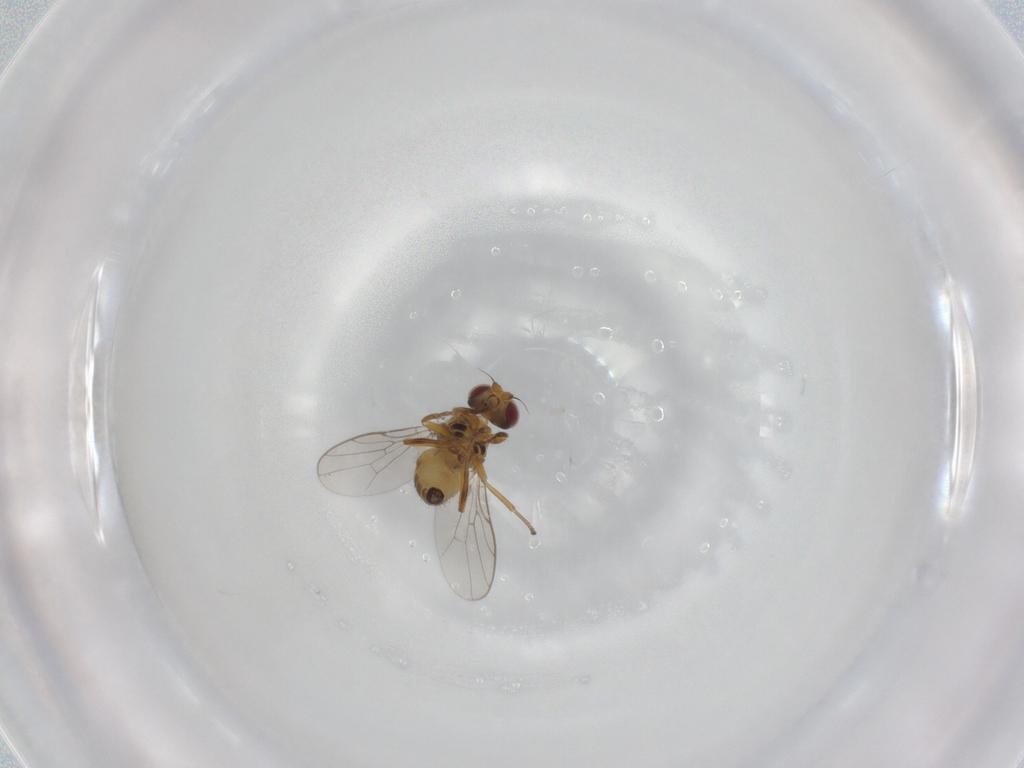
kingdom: Animalia
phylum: Arthropoda
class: Insecta
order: Diptera
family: Chloropidae
